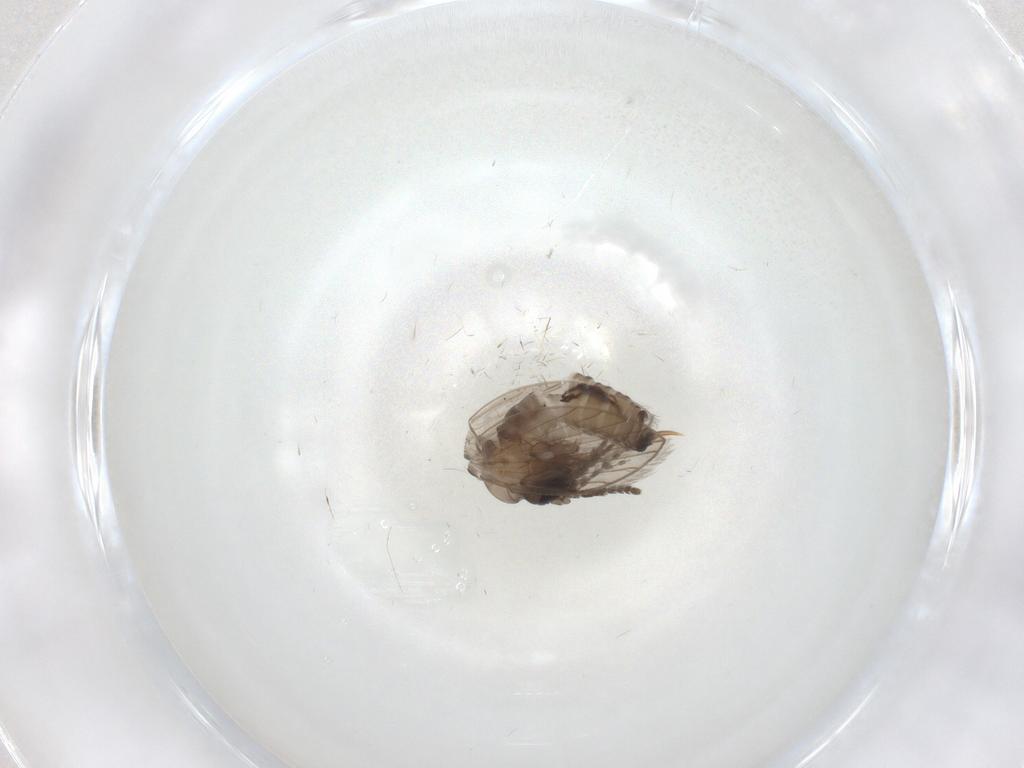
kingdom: Animalia
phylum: Arthropoda
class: Insecta
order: Diptera
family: Psychodidae
